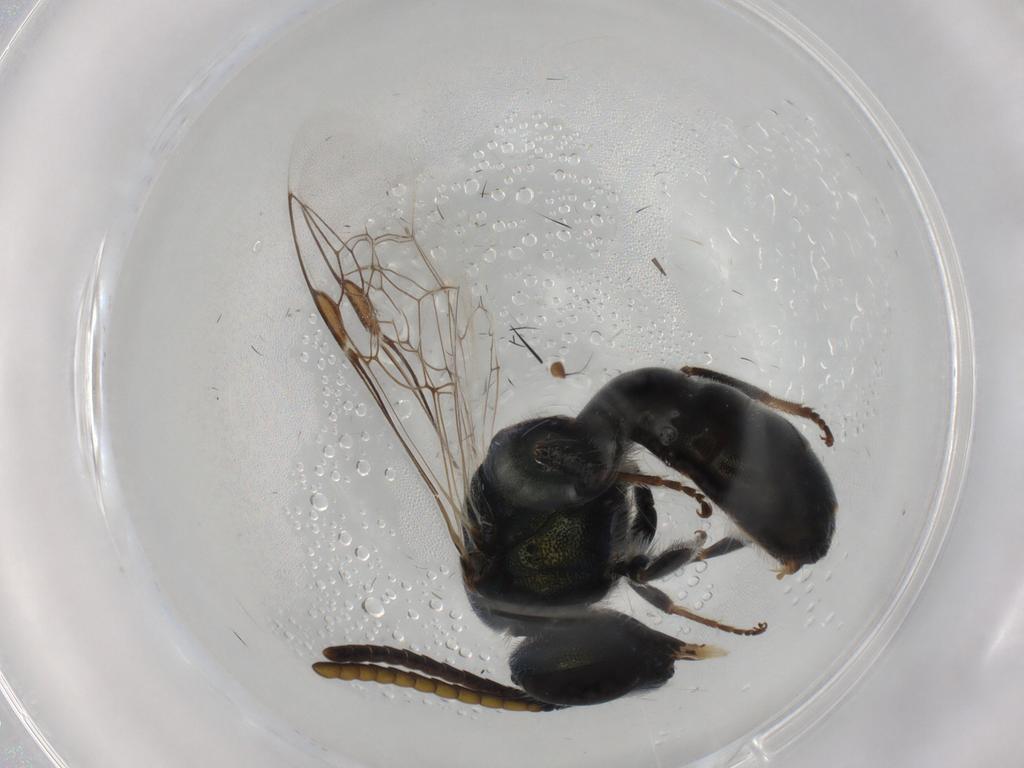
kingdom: Animalia
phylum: Arthropoda
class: Insecta
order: Hymenoptera
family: Halictidae
